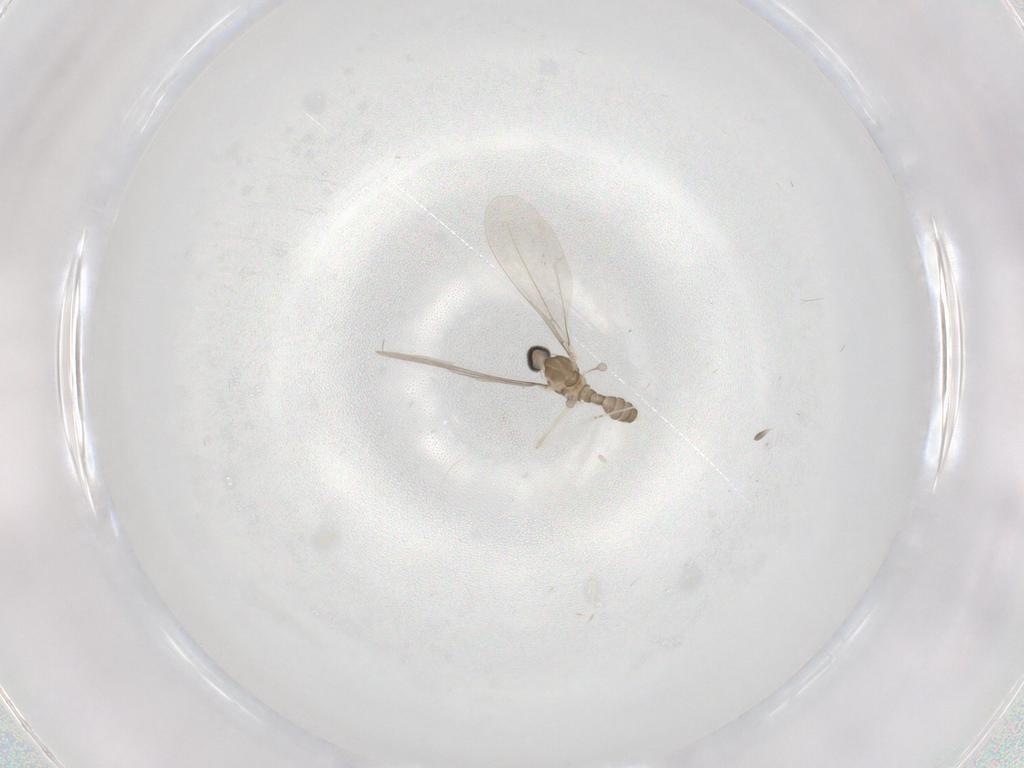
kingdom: Animalia
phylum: Arthropoda
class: Insecta
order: Diptera
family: Cecidomyiidae
